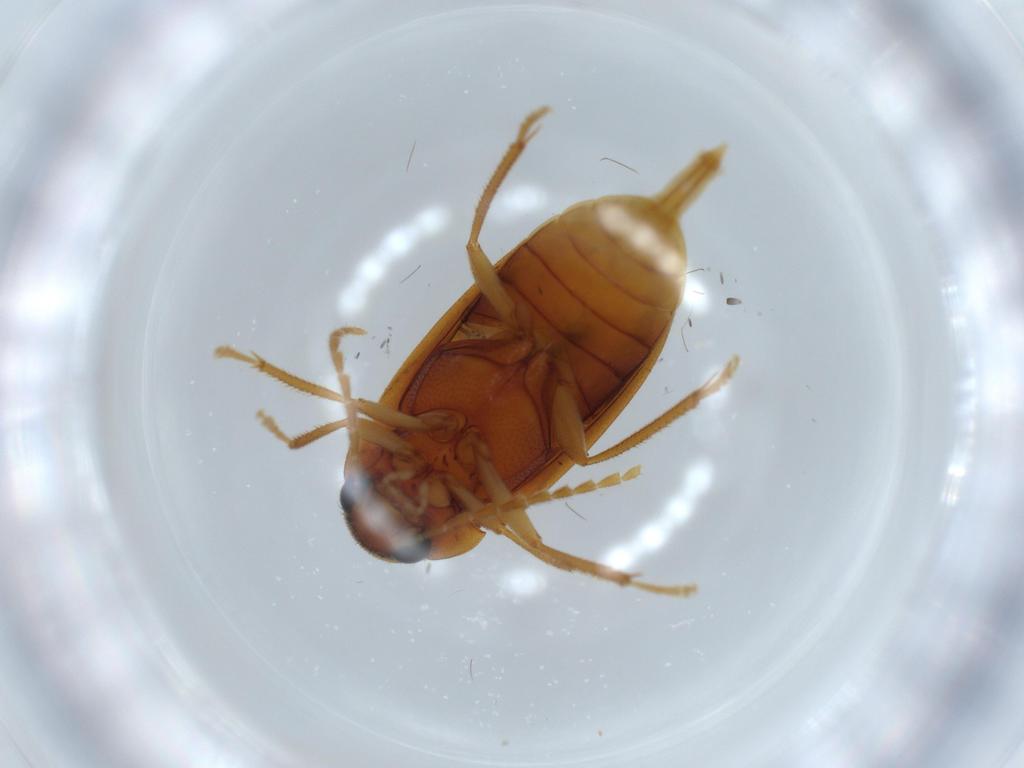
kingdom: Animalia
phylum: Arthropoda
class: Insecta
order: Coleoptera
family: Ptilodactylidae
